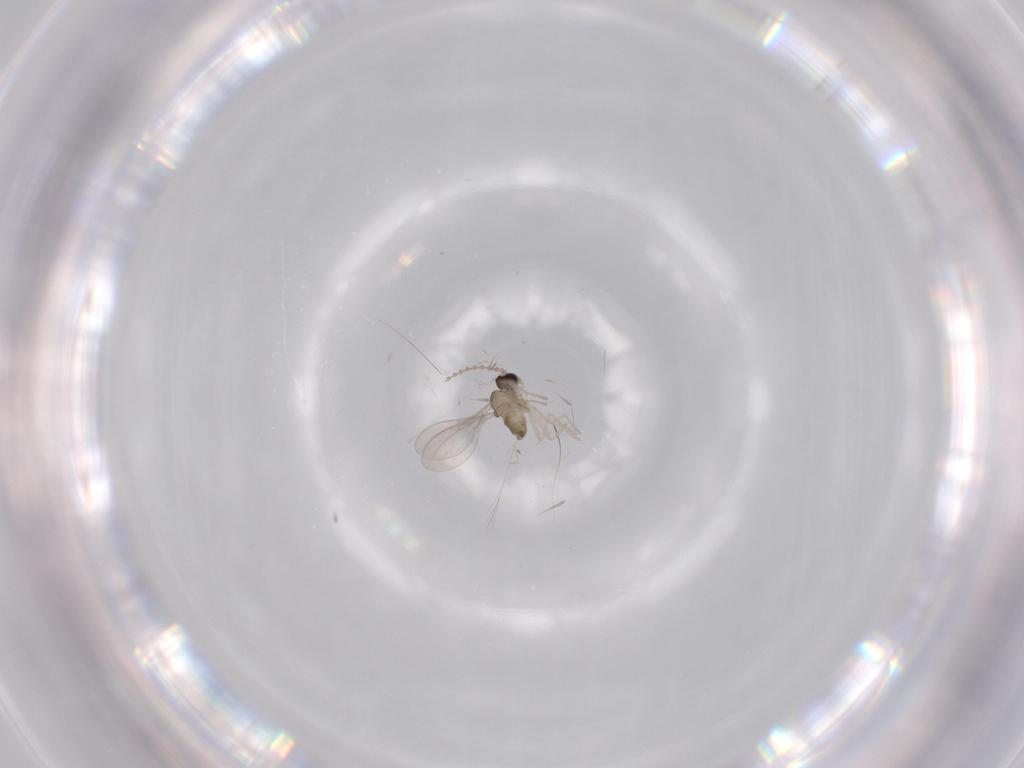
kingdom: Animalia
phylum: Arthropoda
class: Insecta
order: Diptera
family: Cecidomyiidae
